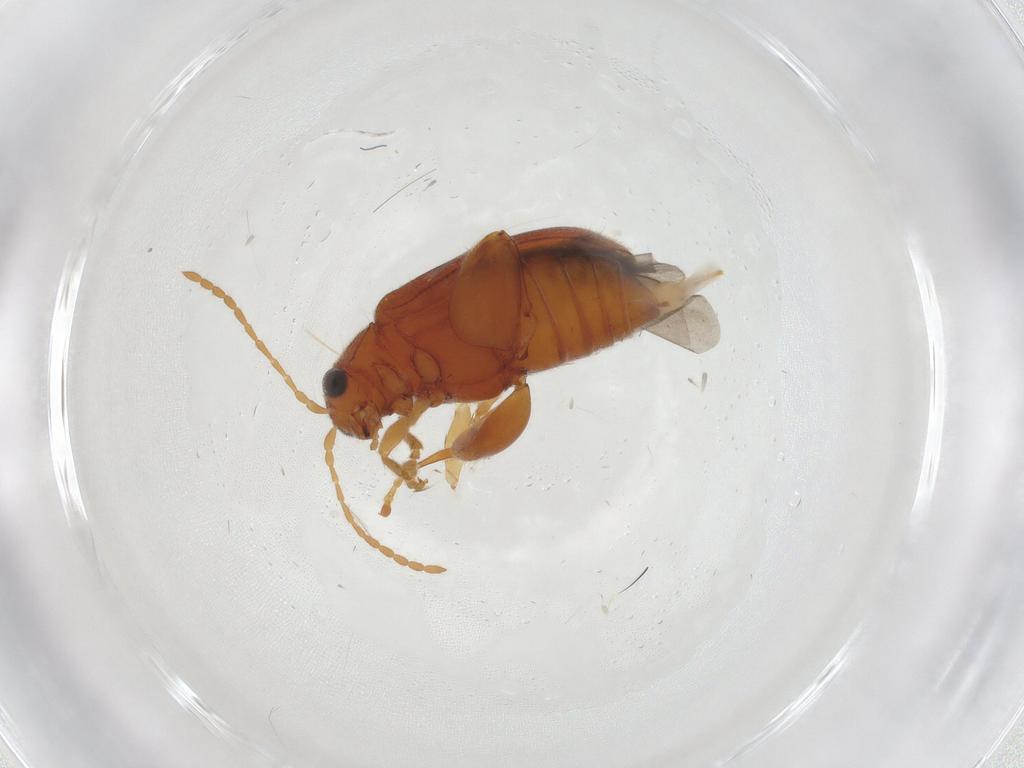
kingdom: Animalia
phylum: Arthropoda
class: Insecta
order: Coleoptera
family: Chrysomelidae
